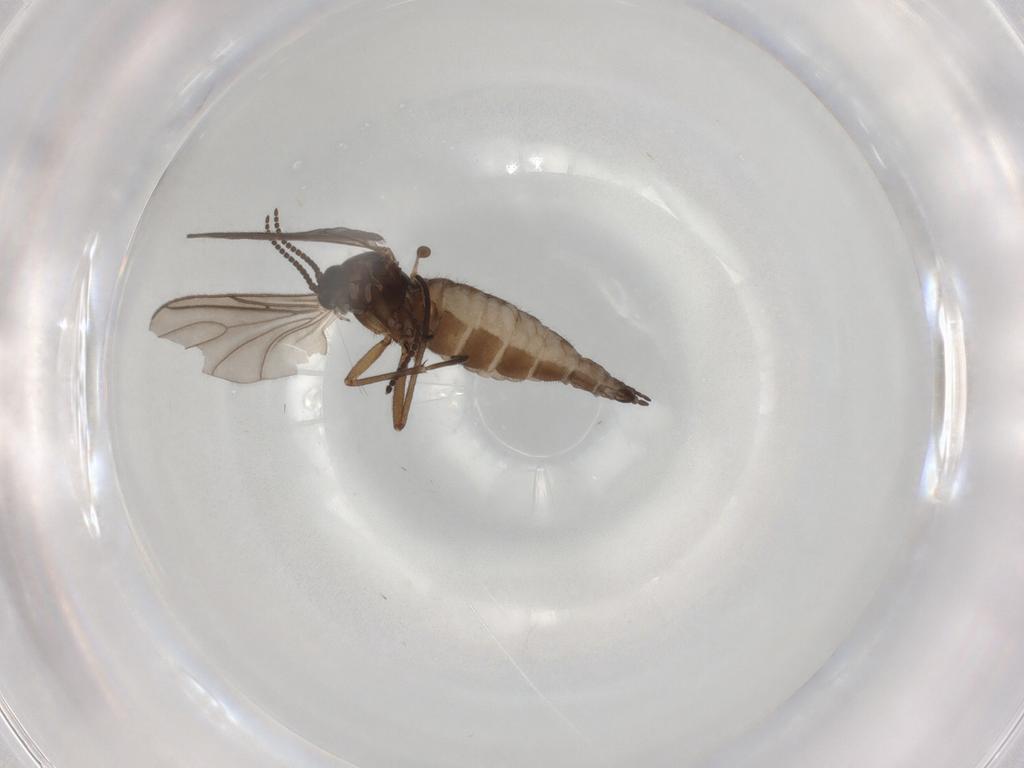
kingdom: Animalia
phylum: Arthropoda
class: Insecta
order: Diptera
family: Sciaridae
